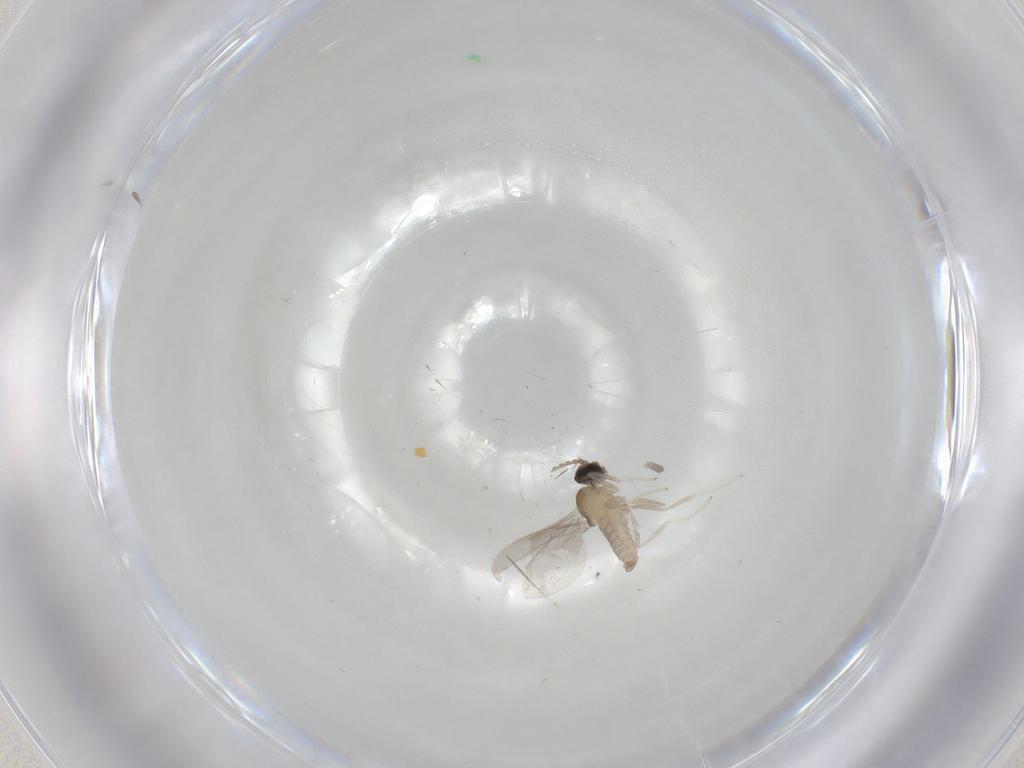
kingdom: Animalia
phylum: Arthropoda
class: Insecta
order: Diptera
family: Cecidomyiidae
